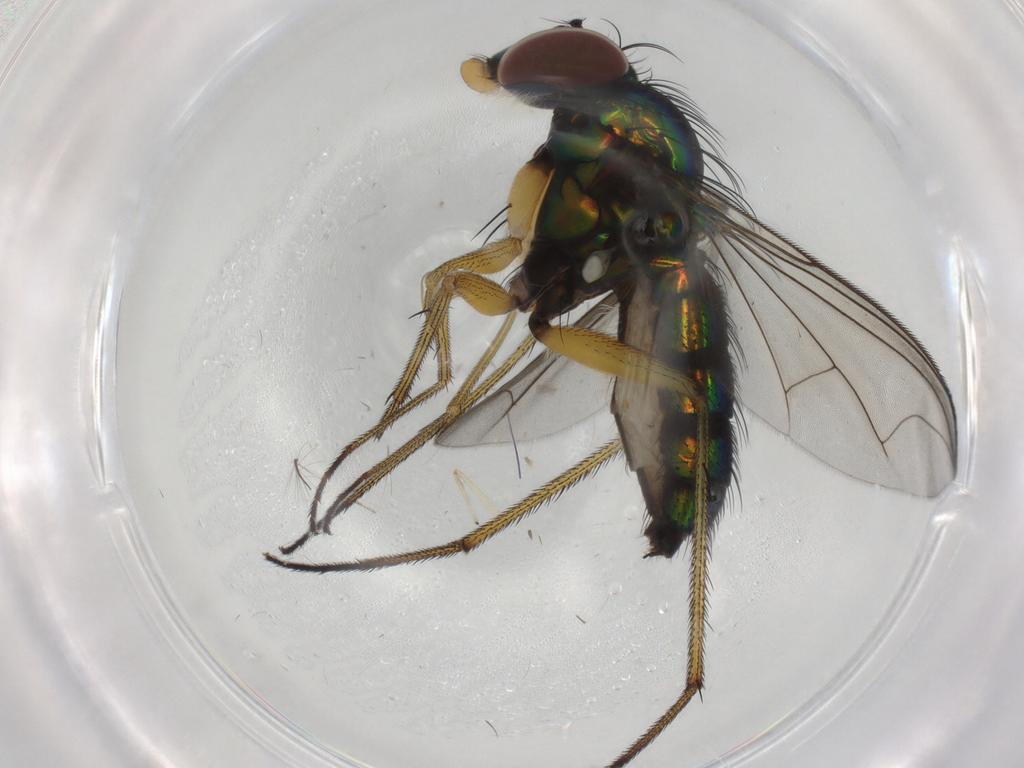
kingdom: Animalia
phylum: Arthropoda
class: Insecta
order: Diptera
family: Dolichopodidae
